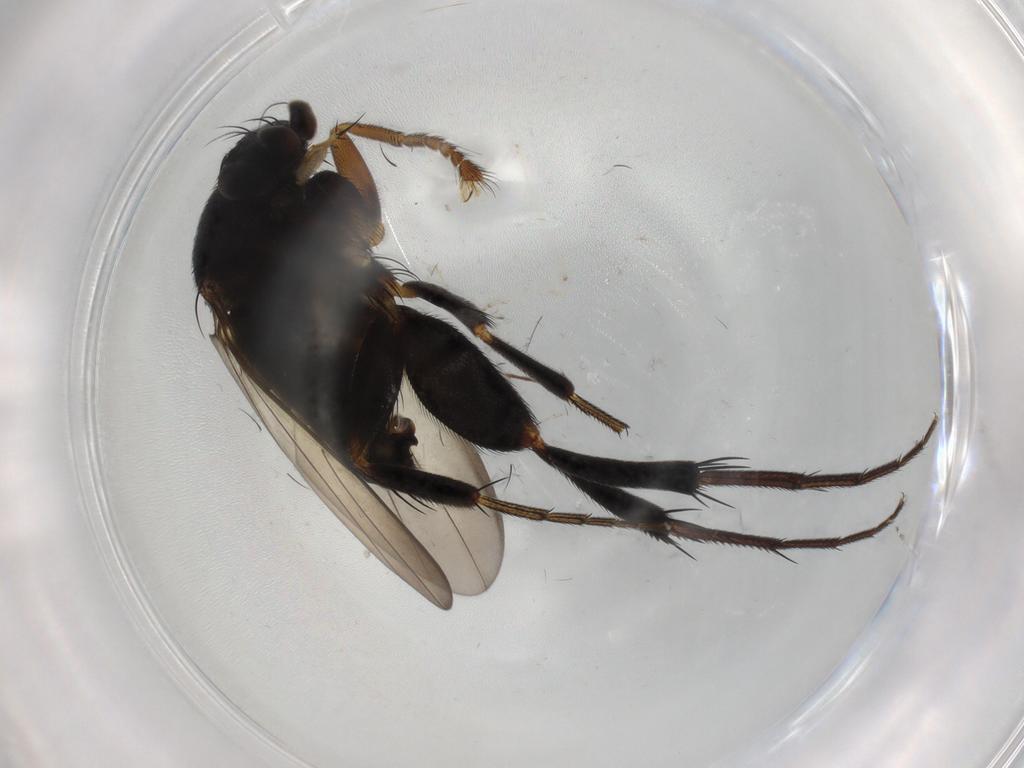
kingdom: Animalia
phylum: Arthropoda
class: Insecta
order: Diptera
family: Phoridae
